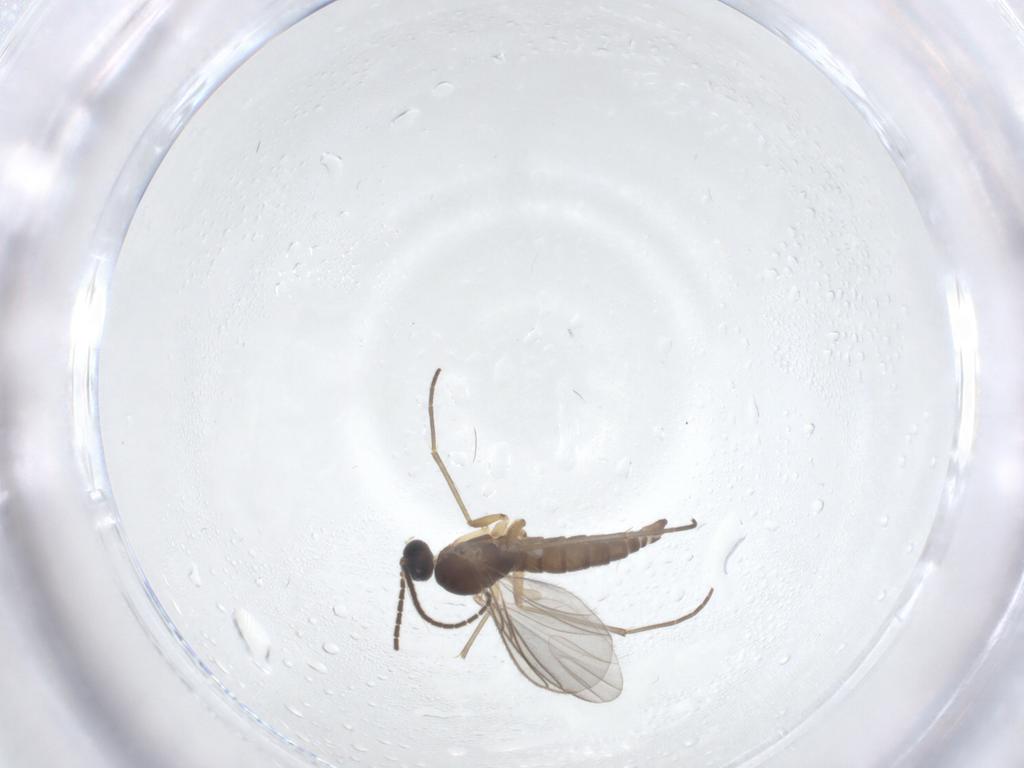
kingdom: Animalia
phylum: Arthropoda
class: Insecta
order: Diptera
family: Sciaridae
